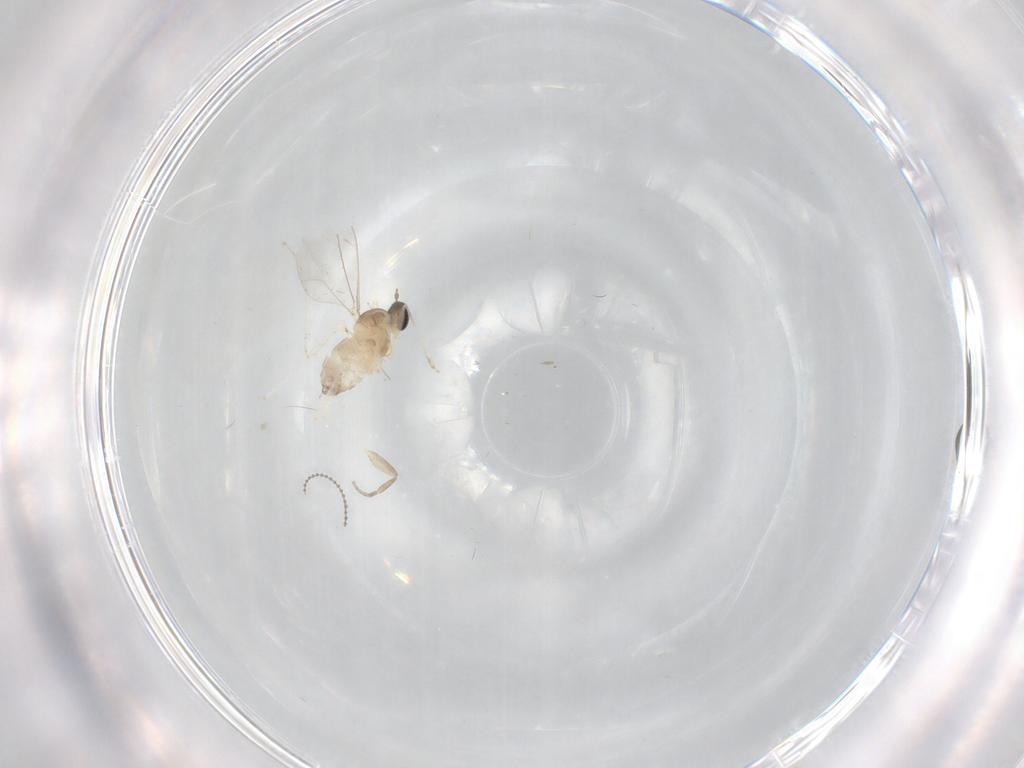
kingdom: Animalia
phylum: Arthropoda
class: Insecta
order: Diptera
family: Cecidomyiidae
